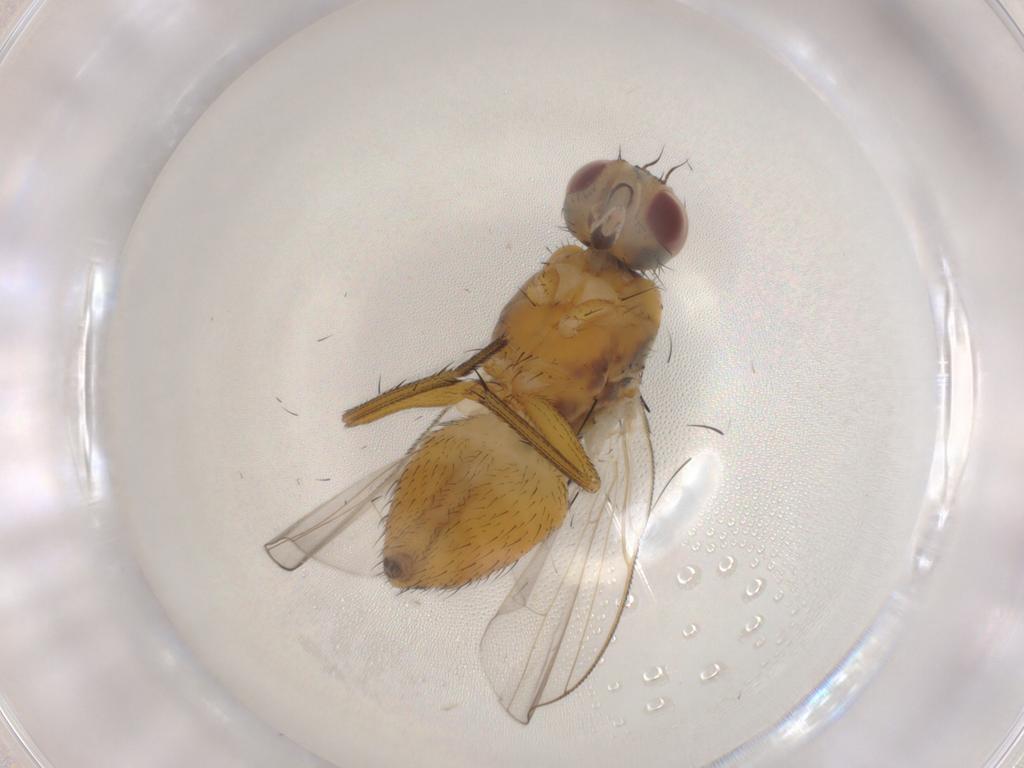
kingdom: Animalia
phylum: Arthropoda
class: Insecta
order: Diptera
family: Muscidae
